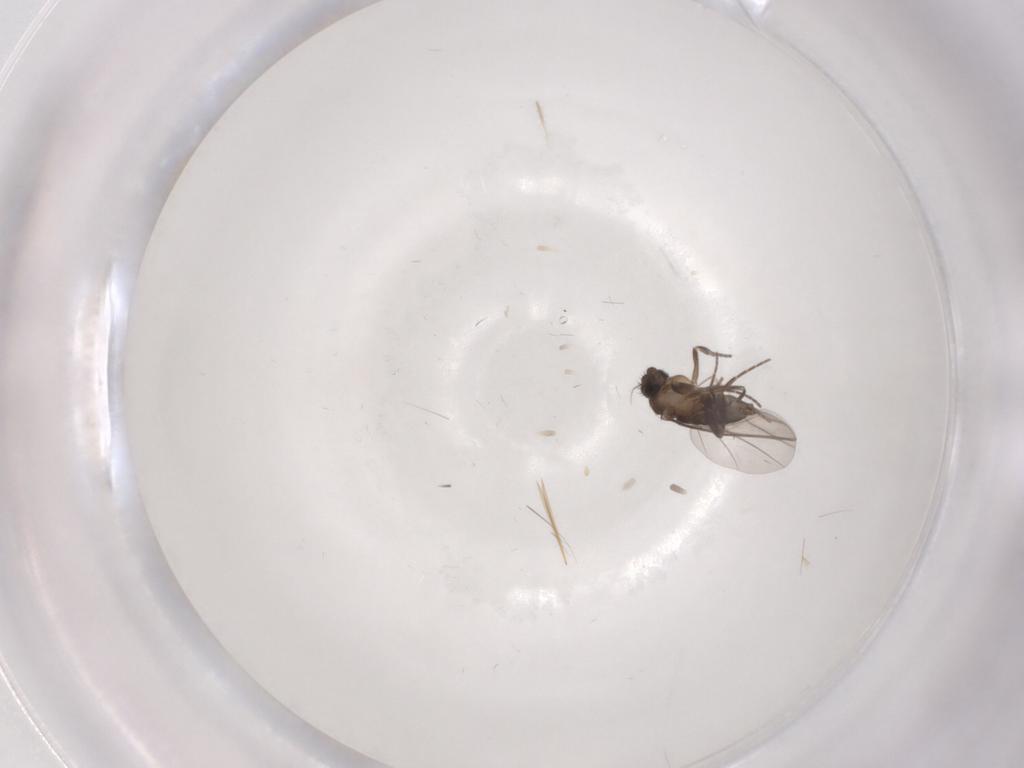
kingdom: Animalia
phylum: Arthropoda
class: Insecta
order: Diptera
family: Phoridae
